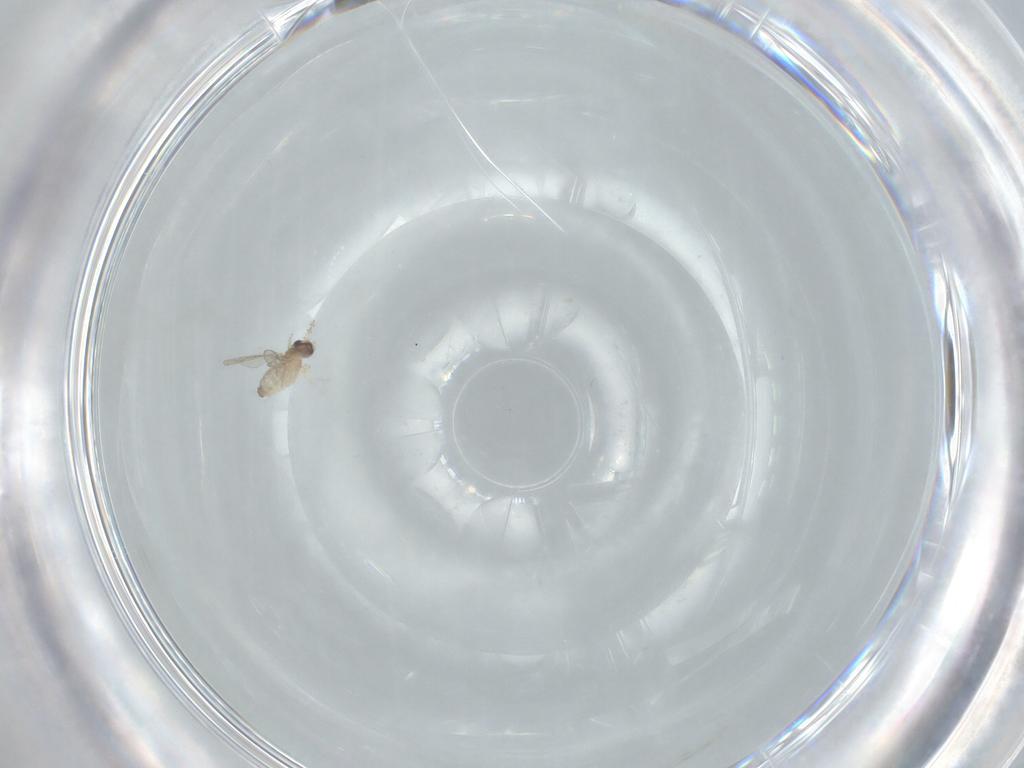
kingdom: Animalia
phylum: Arthropoda
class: Insecta
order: Diptera
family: Cecidomyiidae
